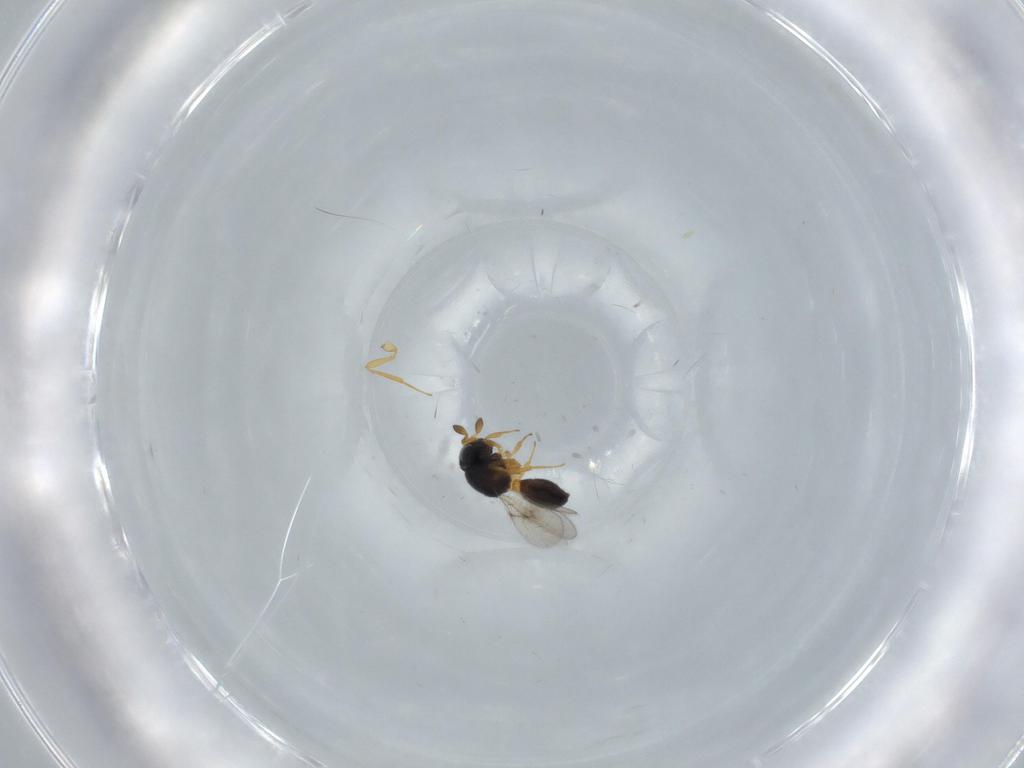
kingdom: Animalia
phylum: Arthropoda
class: Insecta
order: Hymenoptera
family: Scelionidae
